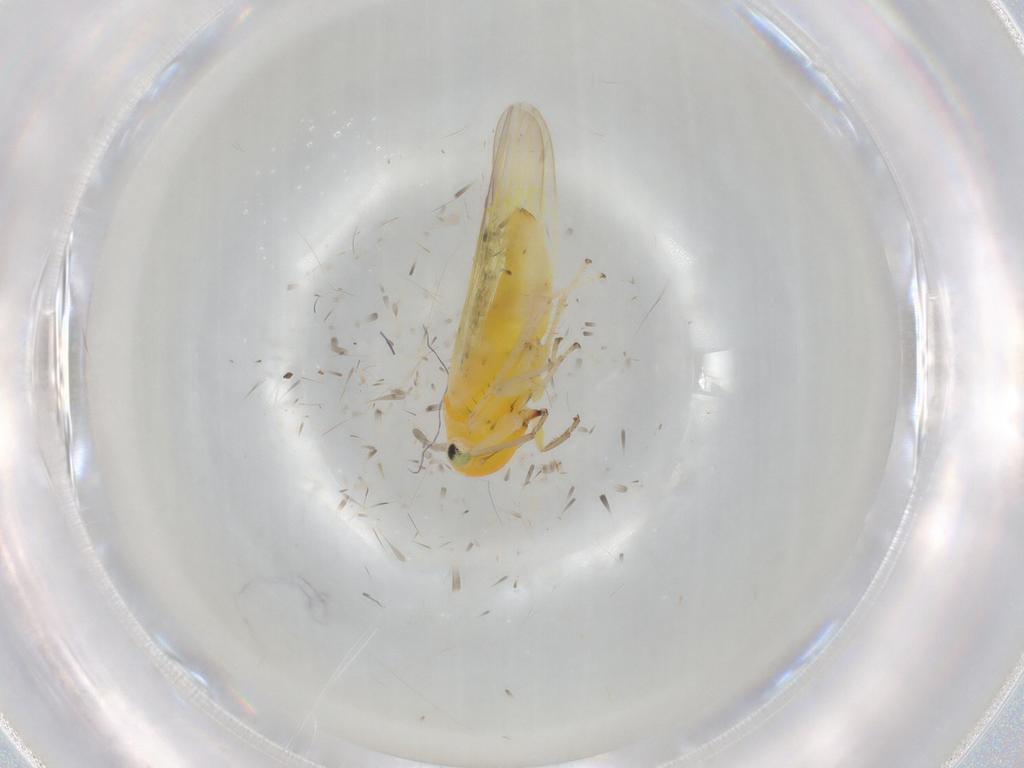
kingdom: Animalia
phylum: Arthropoda
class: Insecta
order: Hemiptera
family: Cicadellidae
